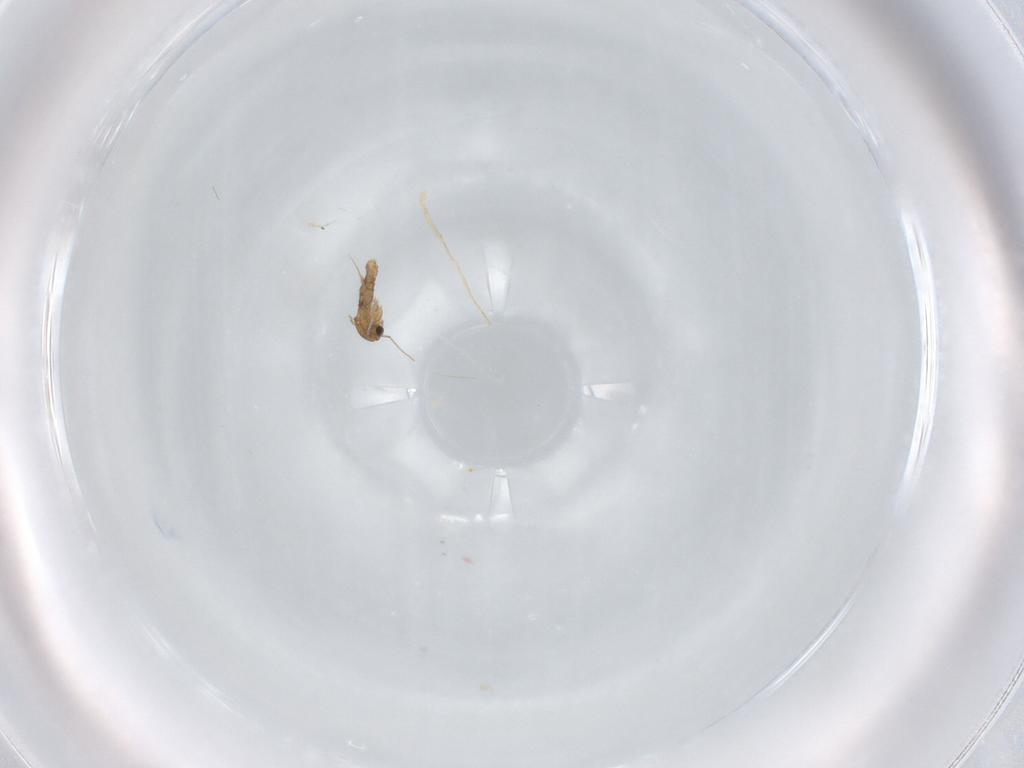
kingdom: Animalia
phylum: Arthropoda
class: Insecta
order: Diptera
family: Chironomidae
